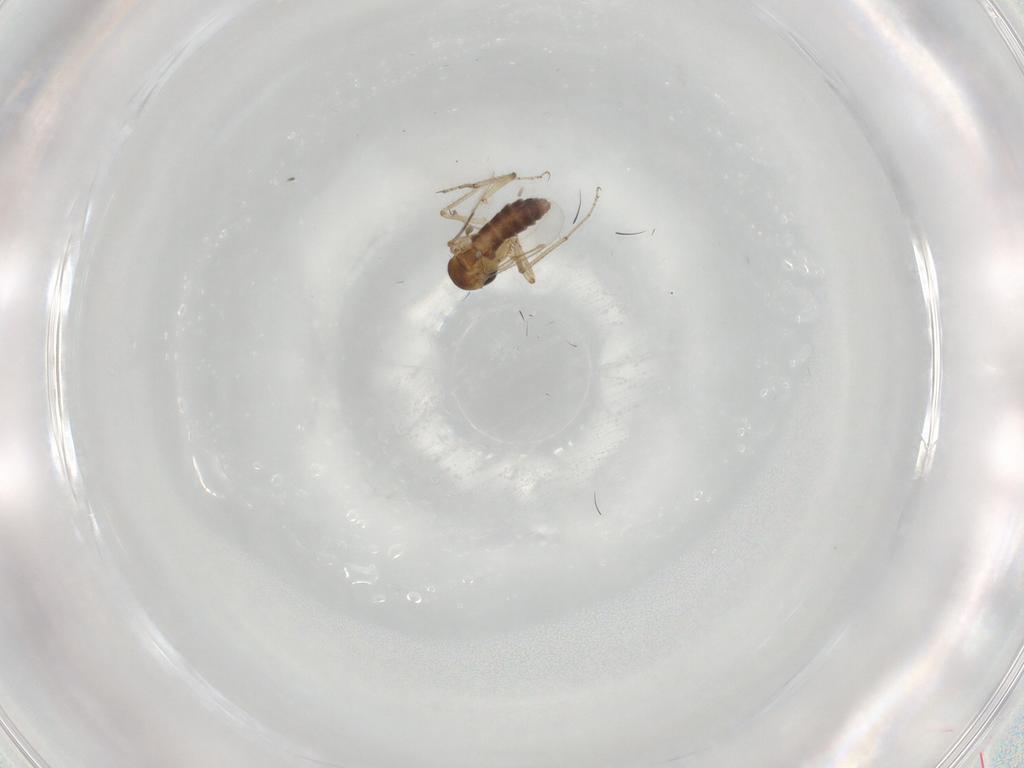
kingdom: Animalia
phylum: Arthropoda
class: Insecta
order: Diptera
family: Ceratopogonidae
